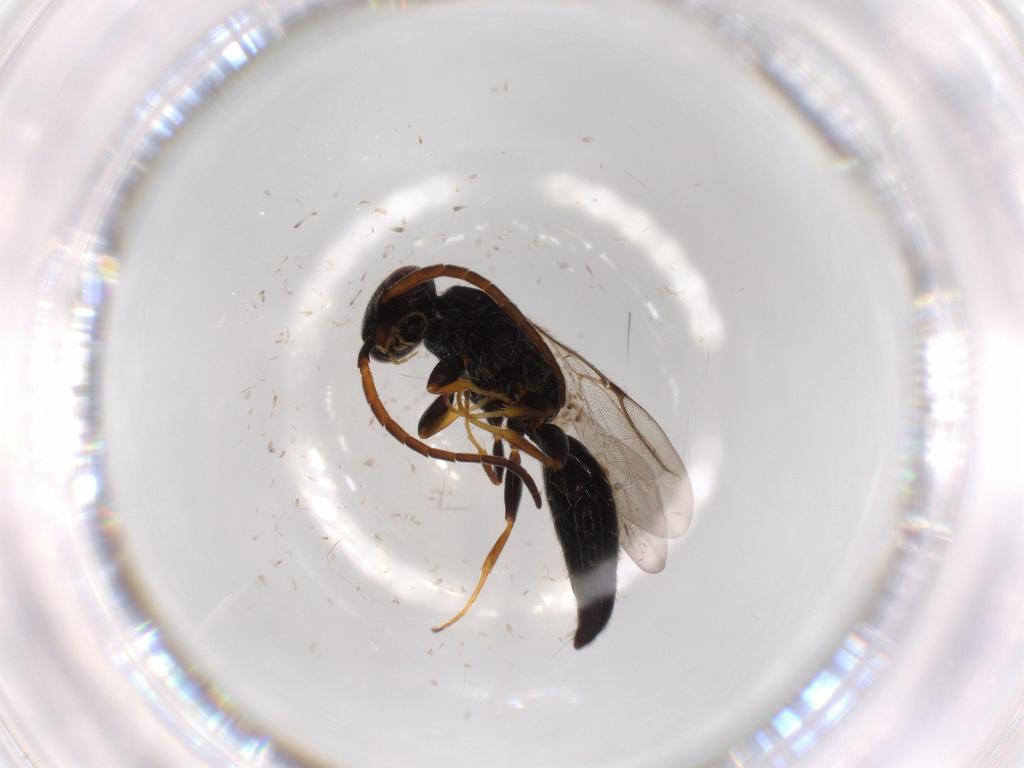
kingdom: Animalia
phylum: Arthropoda
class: Insecta
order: Hymenoptera
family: Bethylidae
